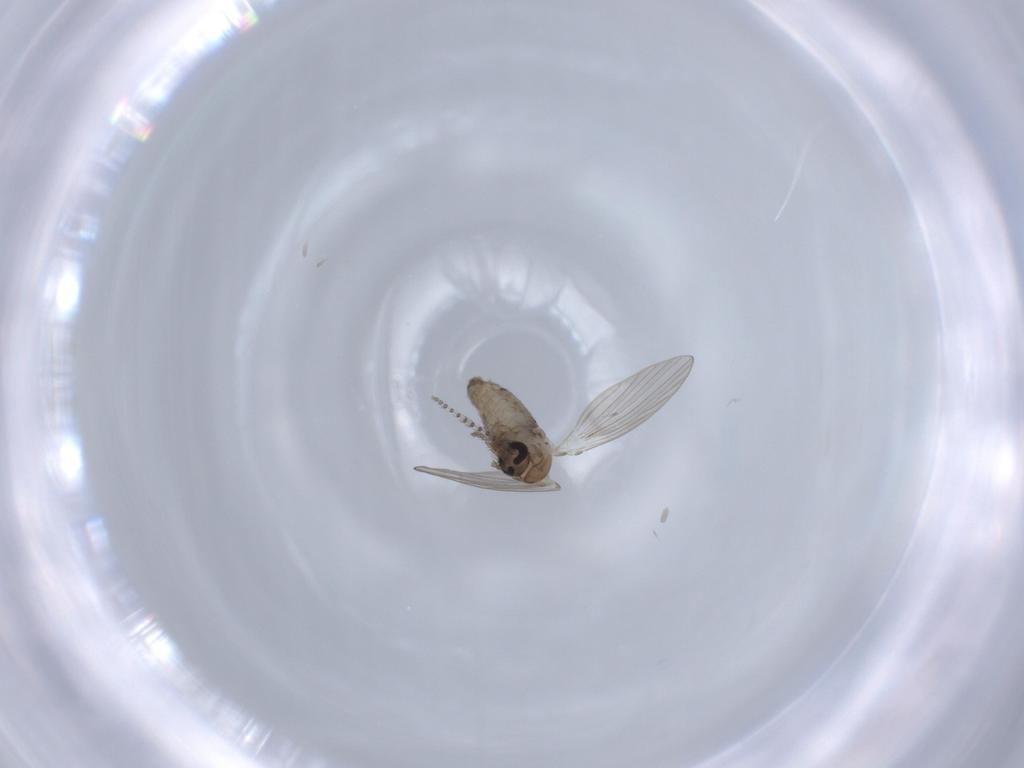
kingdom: Animalia
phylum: Arthropoda
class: Insecta
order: Diptera
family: Psychodidae
